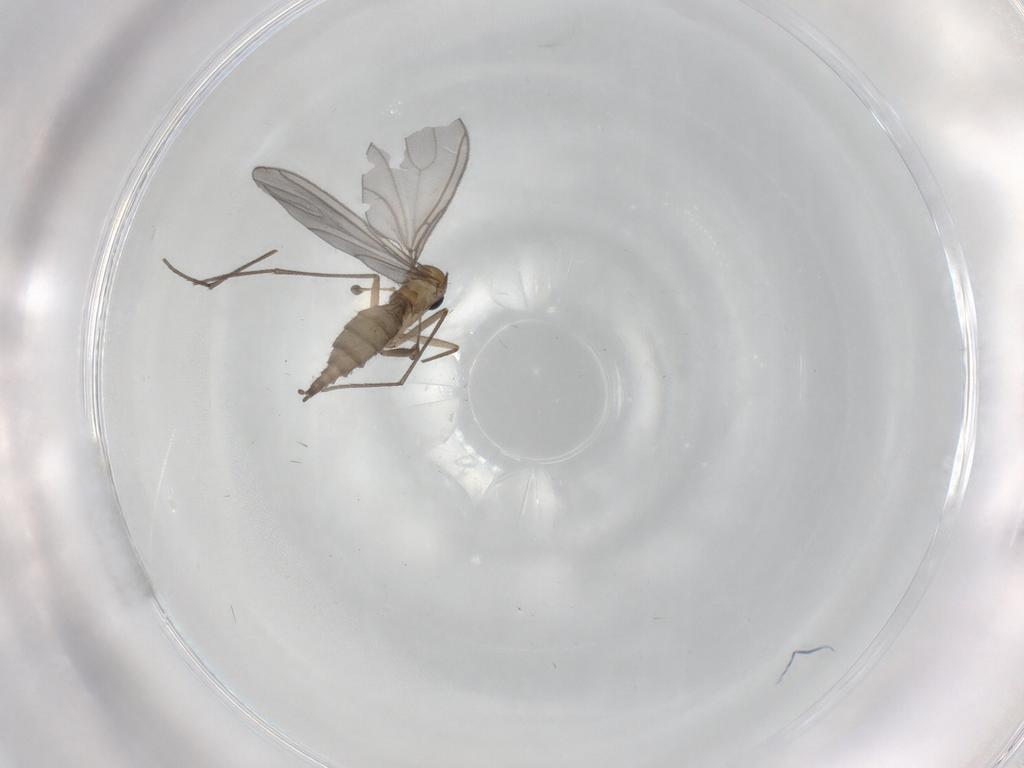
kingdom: Animalia
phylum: Arthropoda
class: Insecta
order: Diptera
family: Sciaridae
